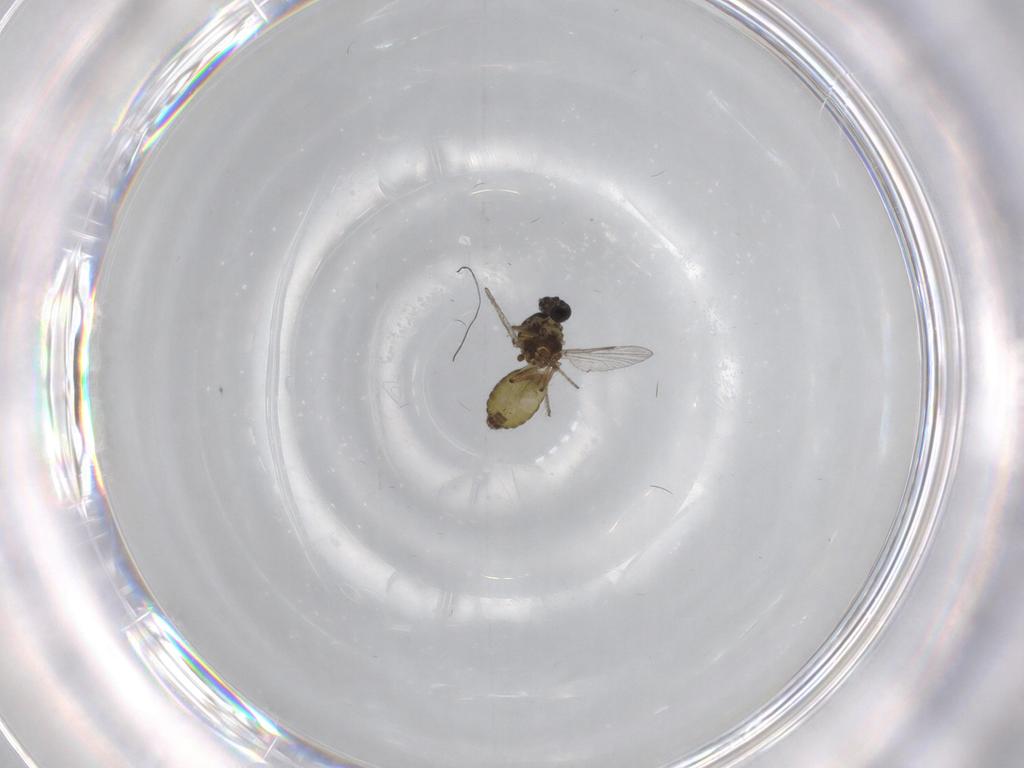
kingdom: Animalia
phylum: Arthropoda
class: Insecta
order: Diptera
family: Ceratopogonidae
